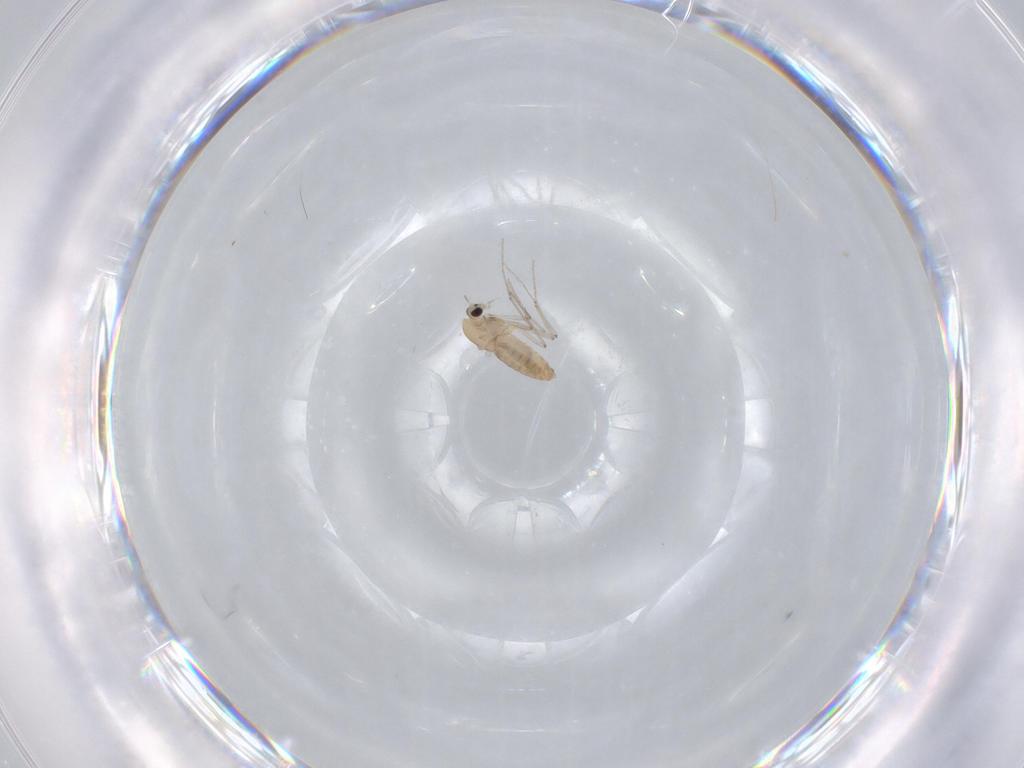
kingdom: Animalia
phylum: Arthropoda
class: Insecta
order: Diptera
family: Chironomidae
